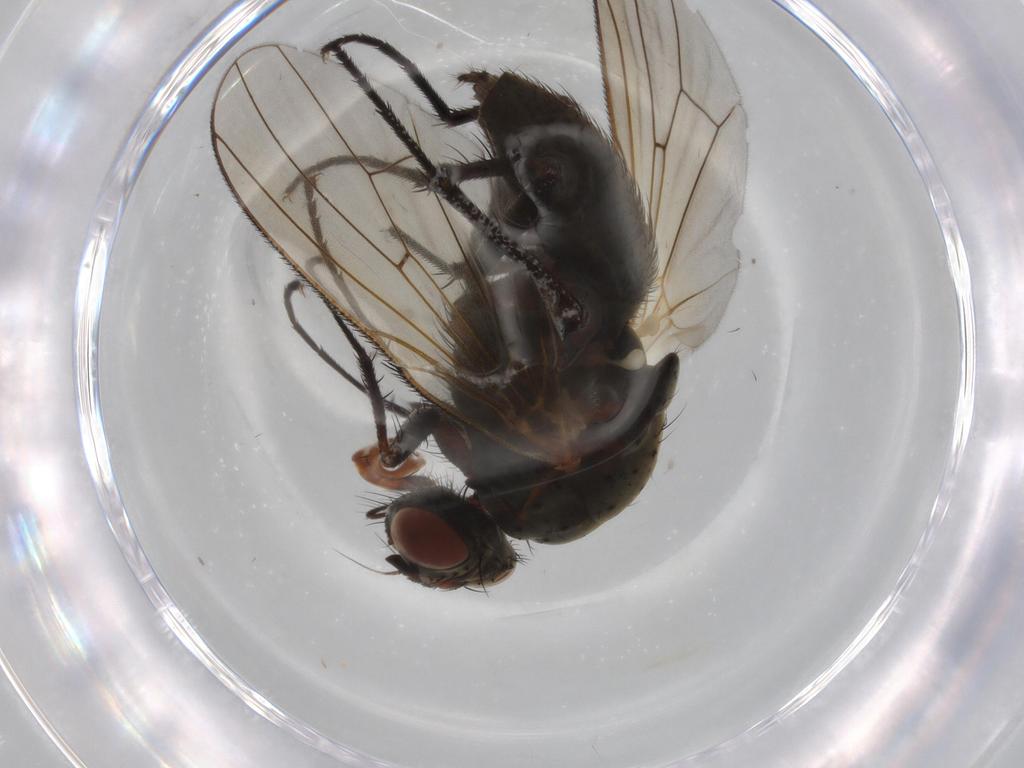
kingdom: Animalia
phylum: Arthropoda
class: Insecta
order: Diptera
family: Anthomyiidae
